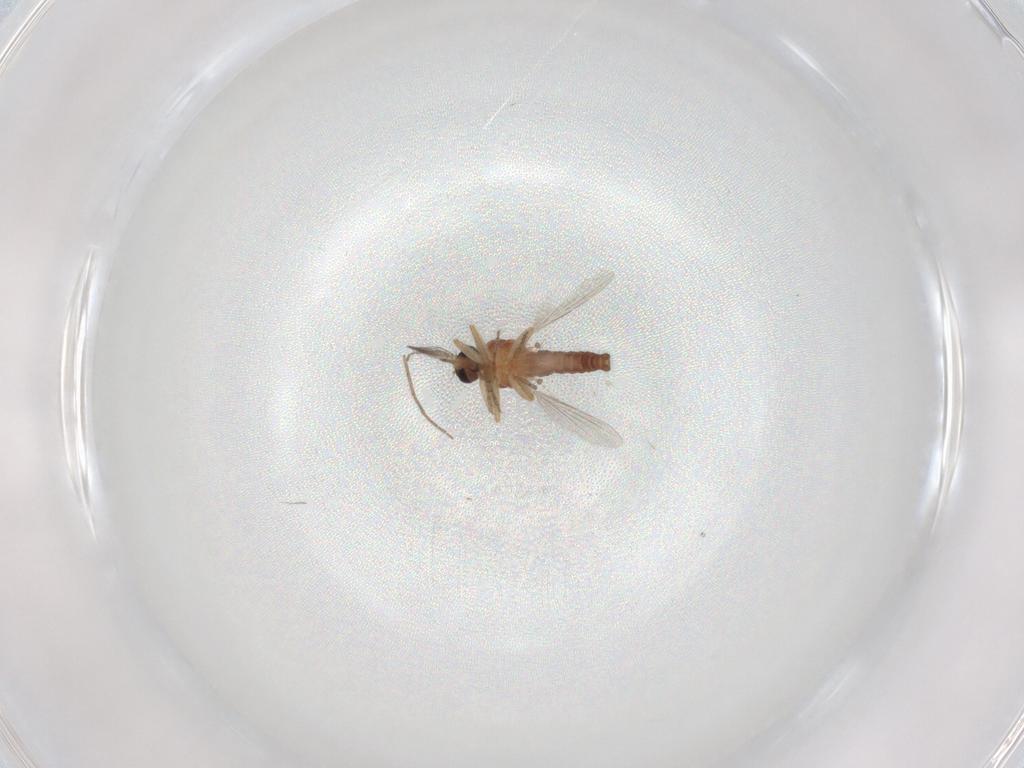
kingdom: Animalia
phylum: Arthropoda
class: Insecta
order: Diptera
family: Ceratopogonidae
